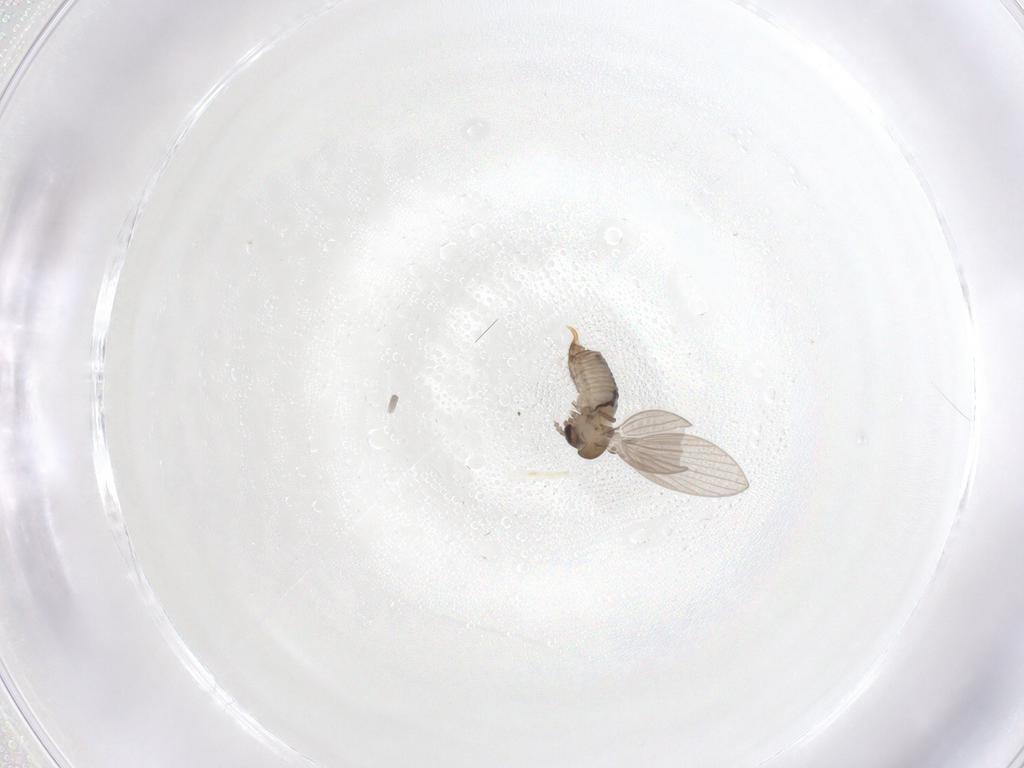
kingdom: Animalia
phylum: Arthropoda
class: Insecta
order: Diptera
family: Psychodidae
